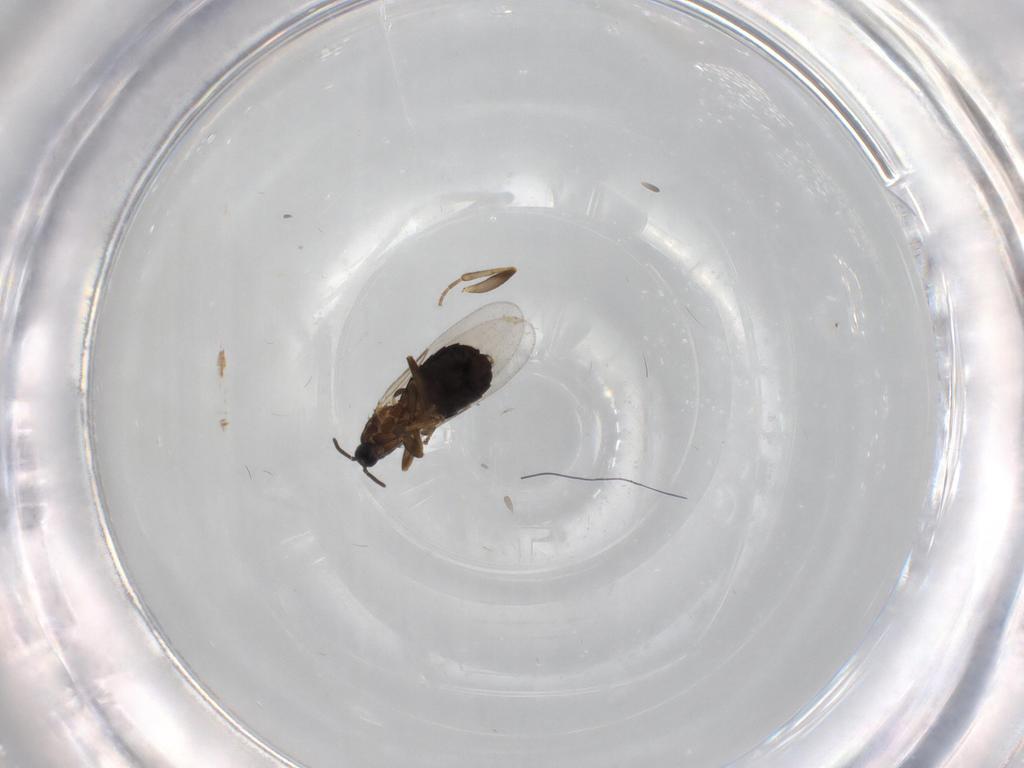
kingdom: Animalia
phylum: Arthropoda
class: Insecta
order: Diptera
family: Scatopsidae
